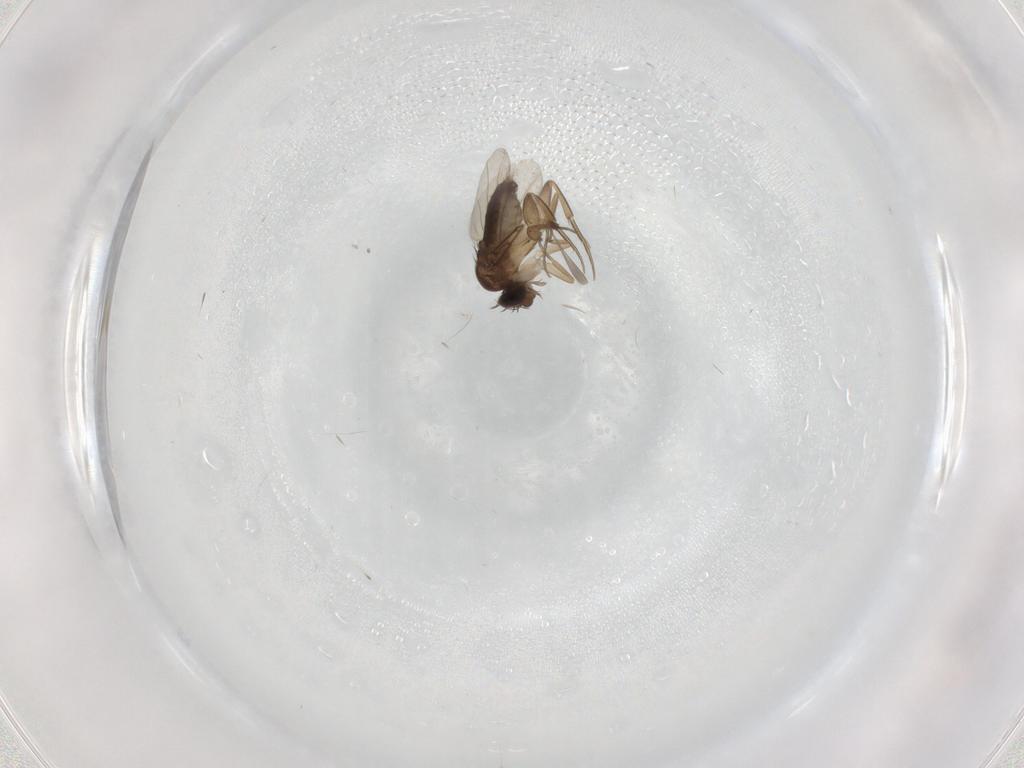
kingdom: Animalia
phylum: Arthropoda
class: Insecta
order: Diptera
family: Phoridae
